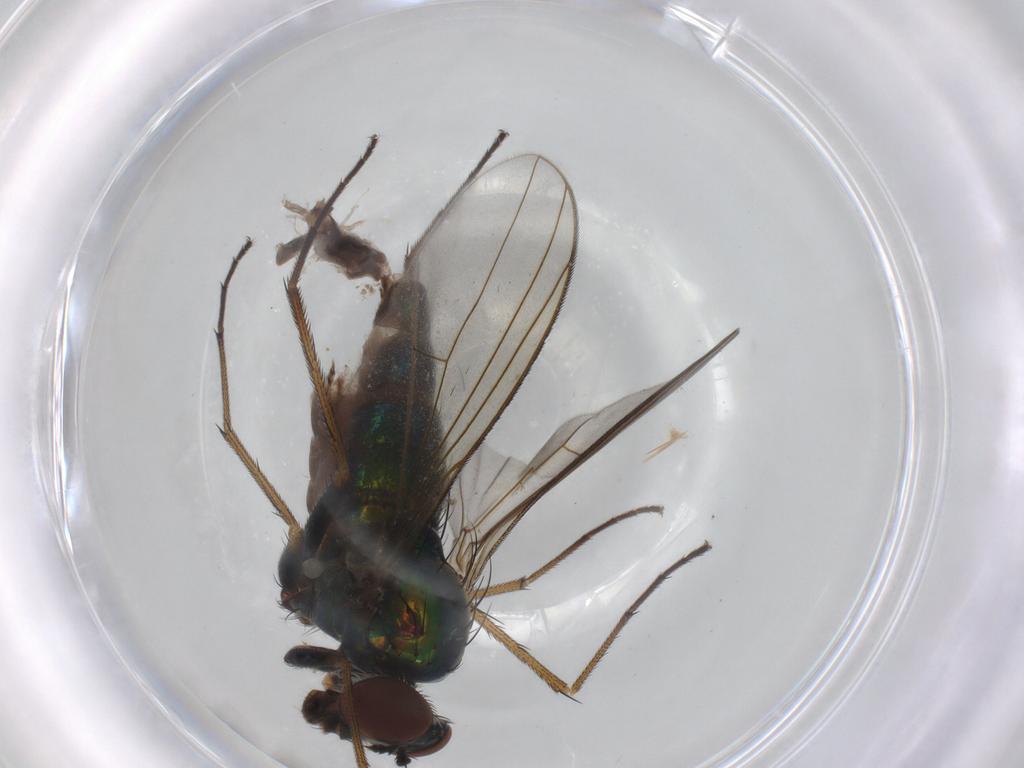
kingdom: Animalia
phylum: Arthropoda
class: Insecta
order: Diptera
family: Dolichopodidae
